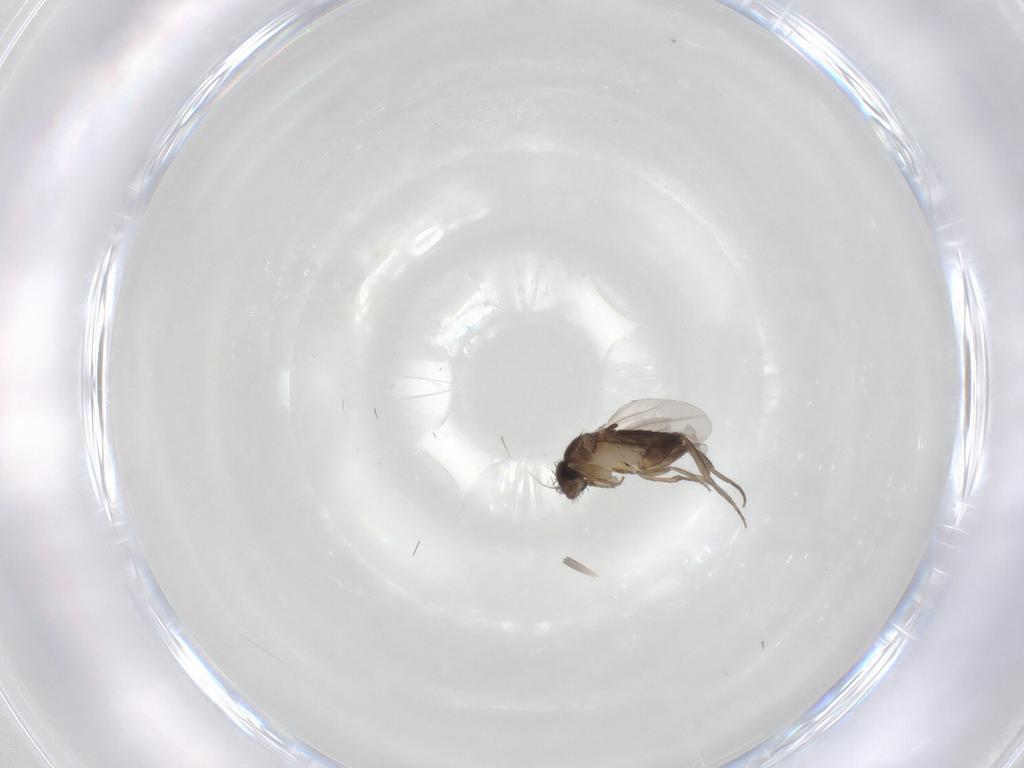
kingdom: Animalia
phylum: Arthropoda
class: Insecta
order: Diptera
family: Phoridae
